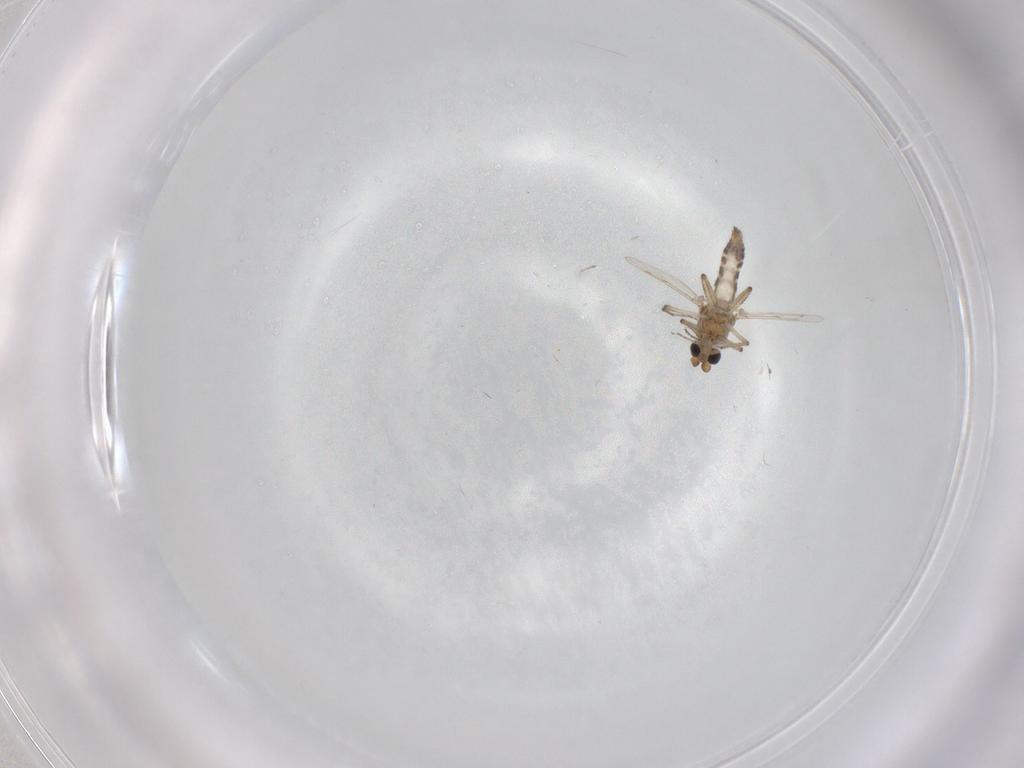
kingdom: Animalia
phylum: Arthropoda
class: Insecta
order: Diptera
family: Ceratopogonidae
